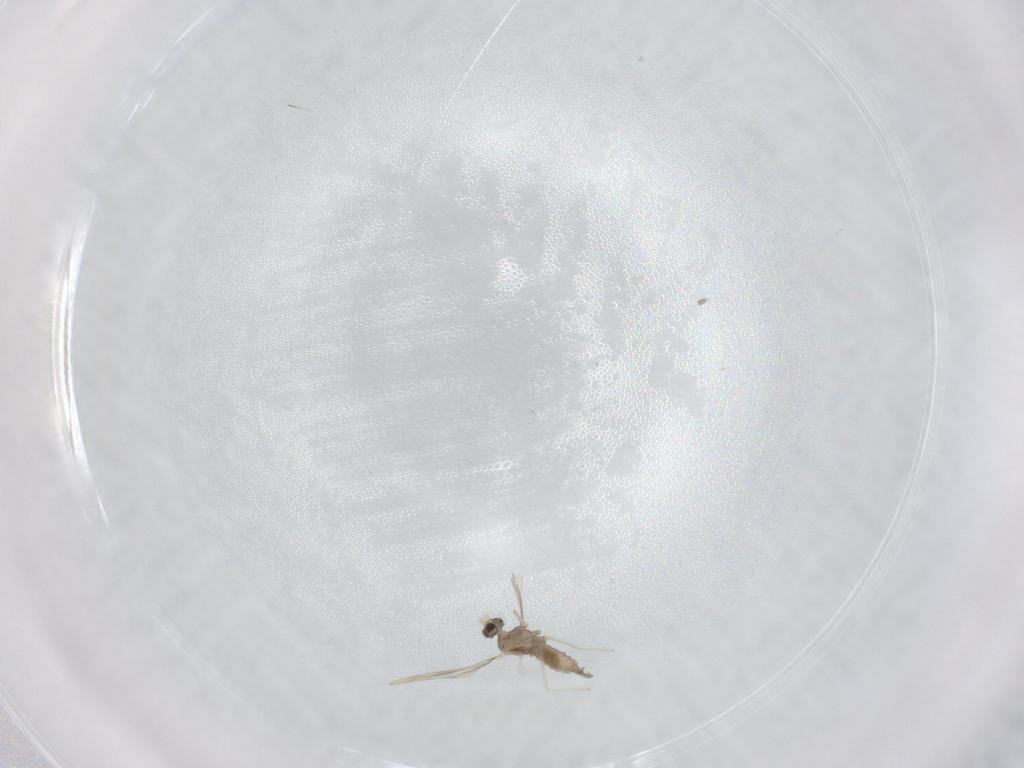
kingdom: Animalia
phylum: Arthropoda
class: Insecta
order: Diptera
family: Cecidomyiidae
